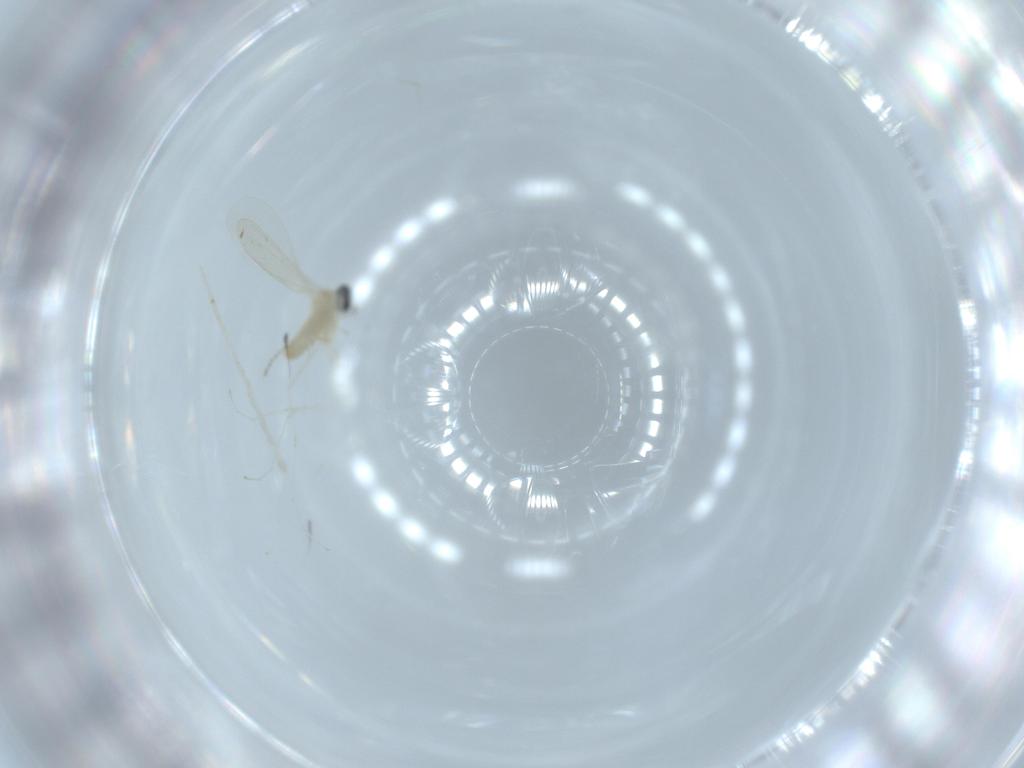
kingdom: Animalia
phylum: Arthropoda
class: Insecta
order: Diptera
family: Cecidomyiidae
